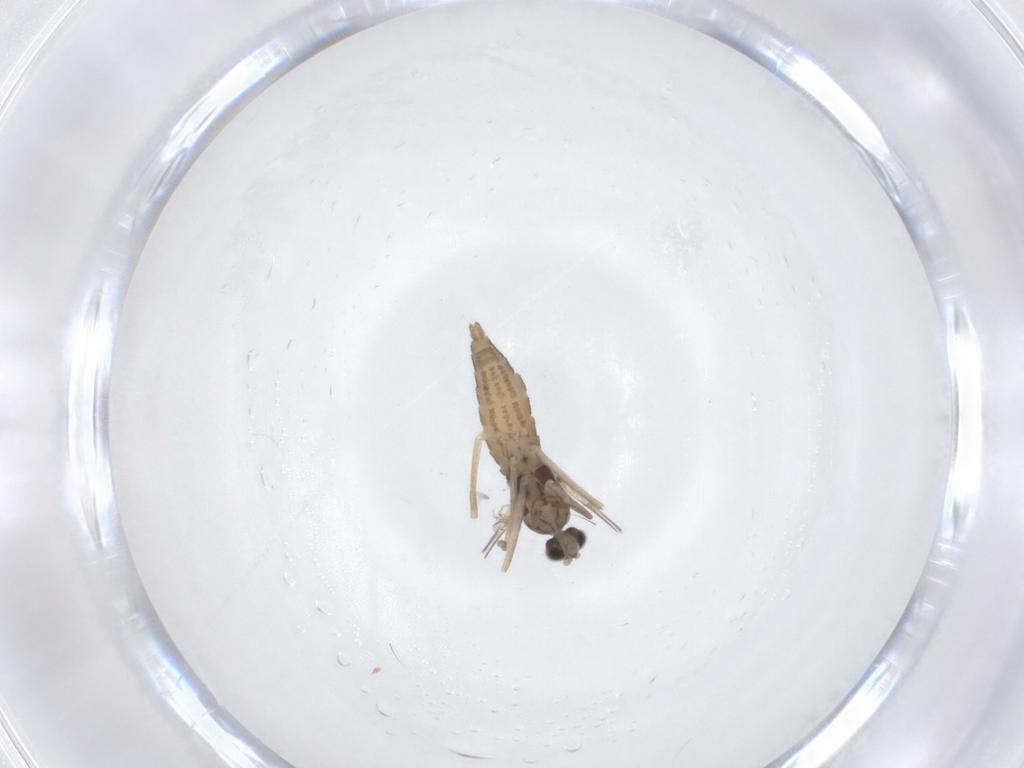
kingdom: Animalia
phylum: Arthropoda
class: Insecta
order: Diptera
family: Cecidomyiidae
